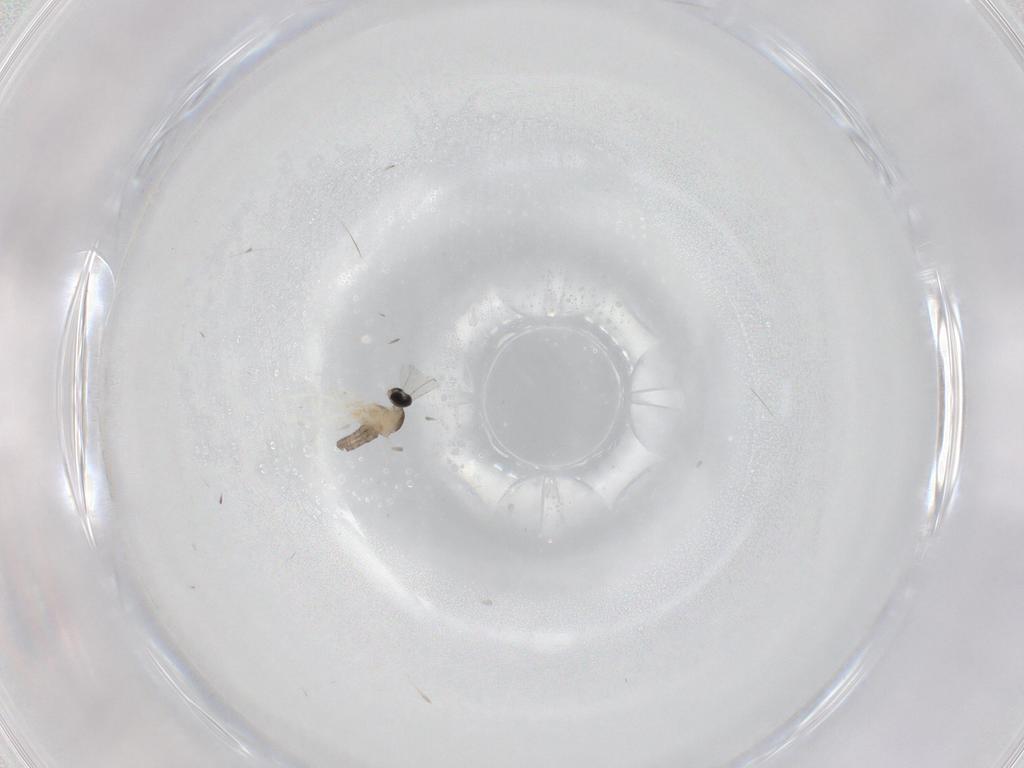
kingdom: Animalia
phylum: Arthropoda
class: Insecta
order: Diptera
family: Cecidomyiidae
